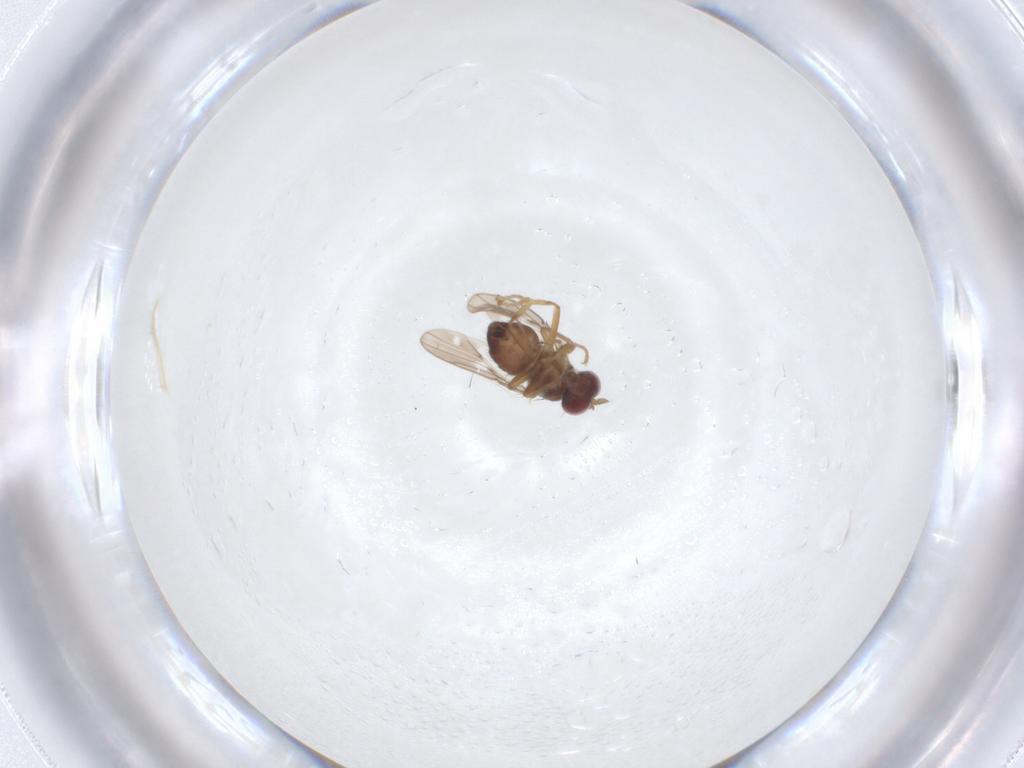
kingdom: Animalia
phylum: Arthropoda
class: Insecta
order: Diptera
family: Ephydridae
